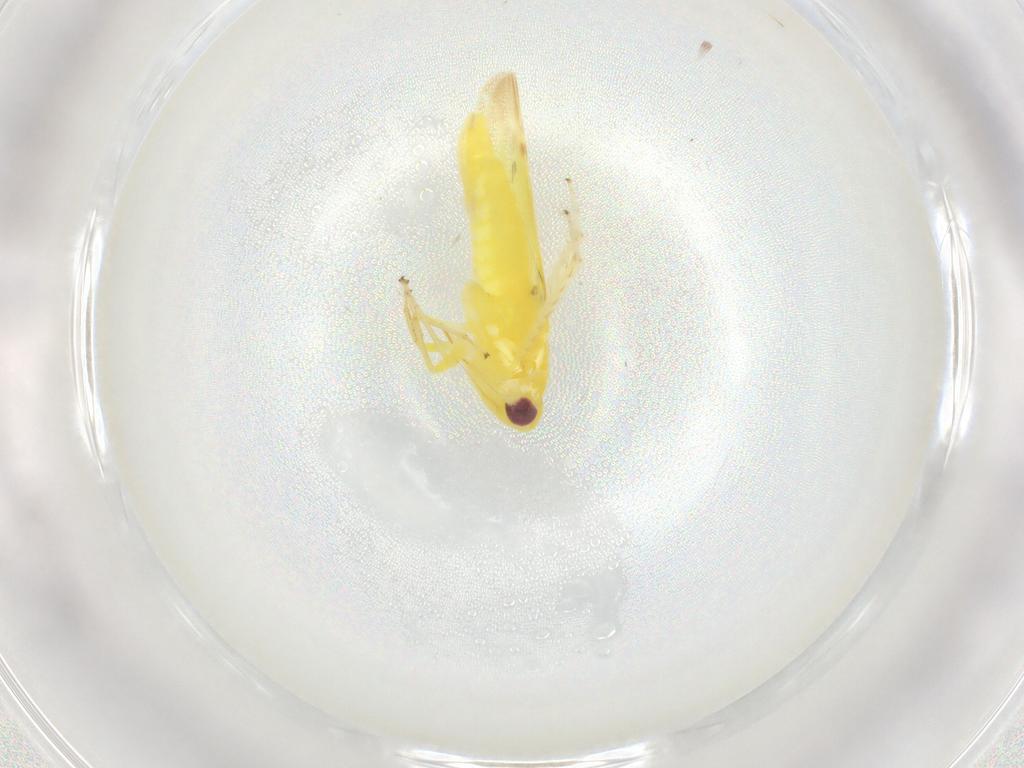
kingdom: Animalia
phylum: Arthropoda
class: Insecta
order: Hemiptera
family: Cicadellidae
